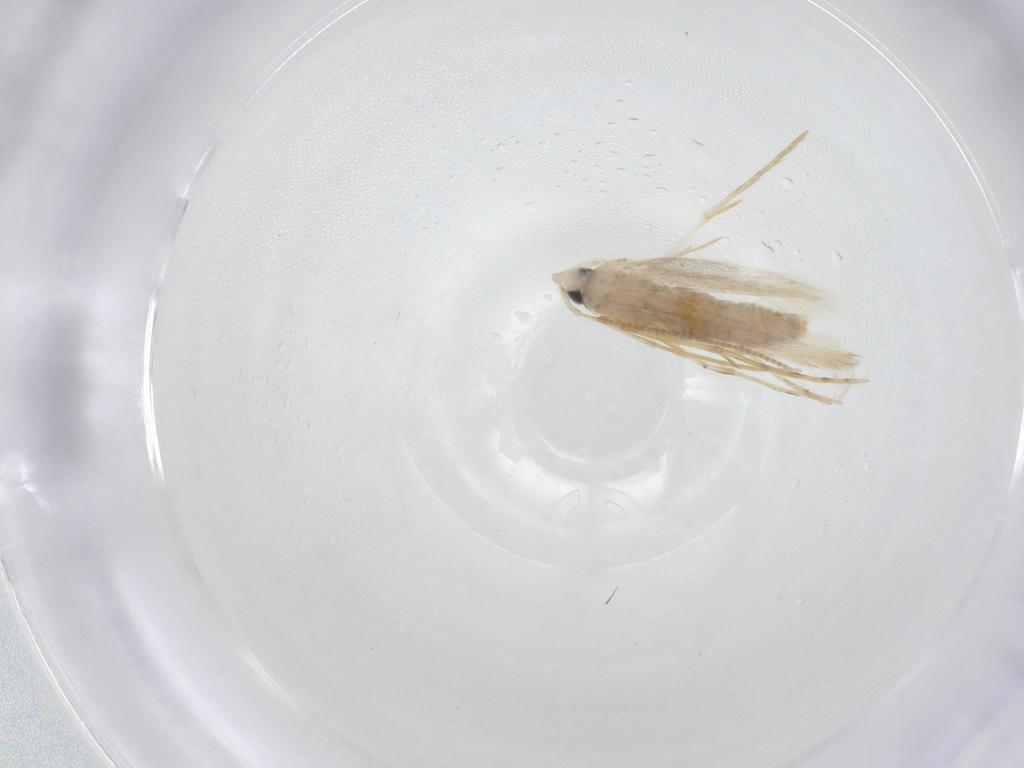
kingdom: Animalia
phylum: Arthropoda
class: Insecta
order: Lepidoptera
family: Tineidae
